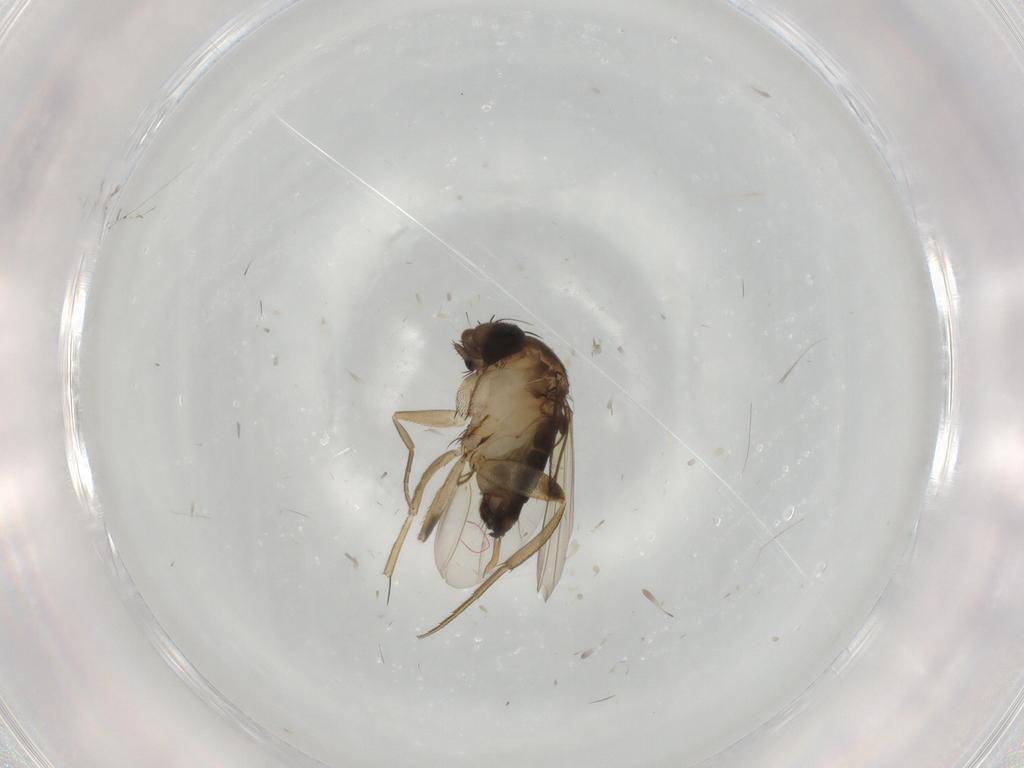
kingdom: Animalia
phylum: Arthropoda
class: Insecta
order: Diptera
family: Phoridae
